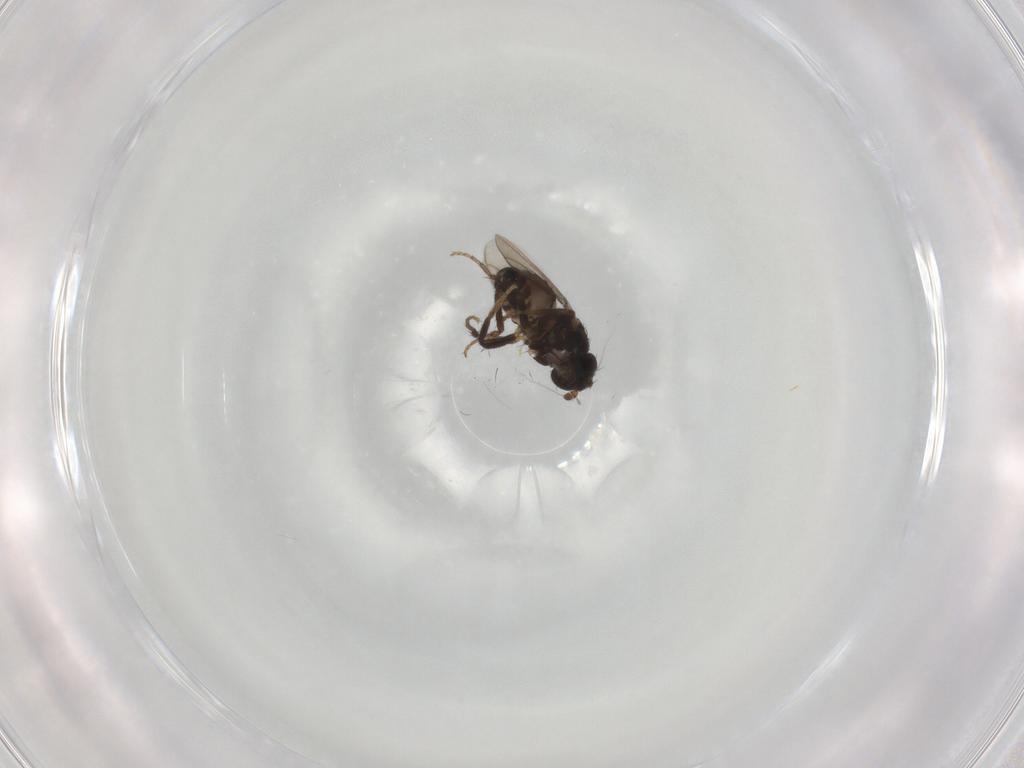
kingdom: Animalia
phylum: Arthropoda
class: Insecta
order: Diptera
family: Sphaeroceridae
